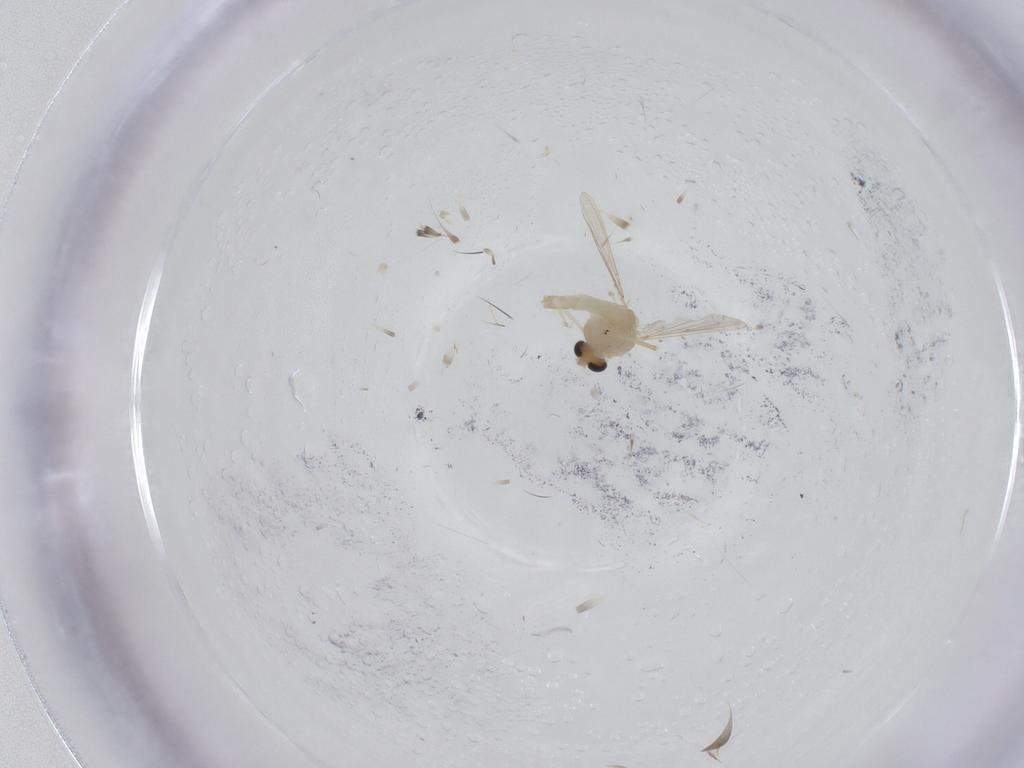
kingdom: Animalia
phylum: Arthropoda
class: Insecta
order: Diptera
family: Chironomidae
